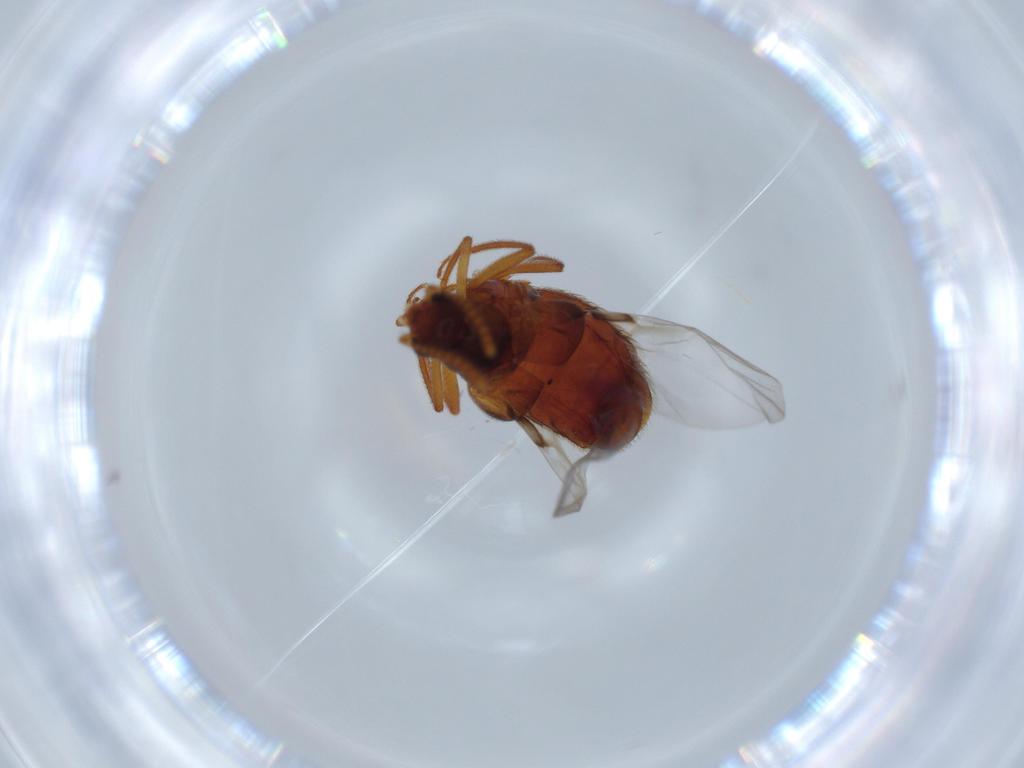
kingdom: Animalia
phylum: Arthropoda
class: Insecta
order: Coleoptera
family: Staphylinidae
